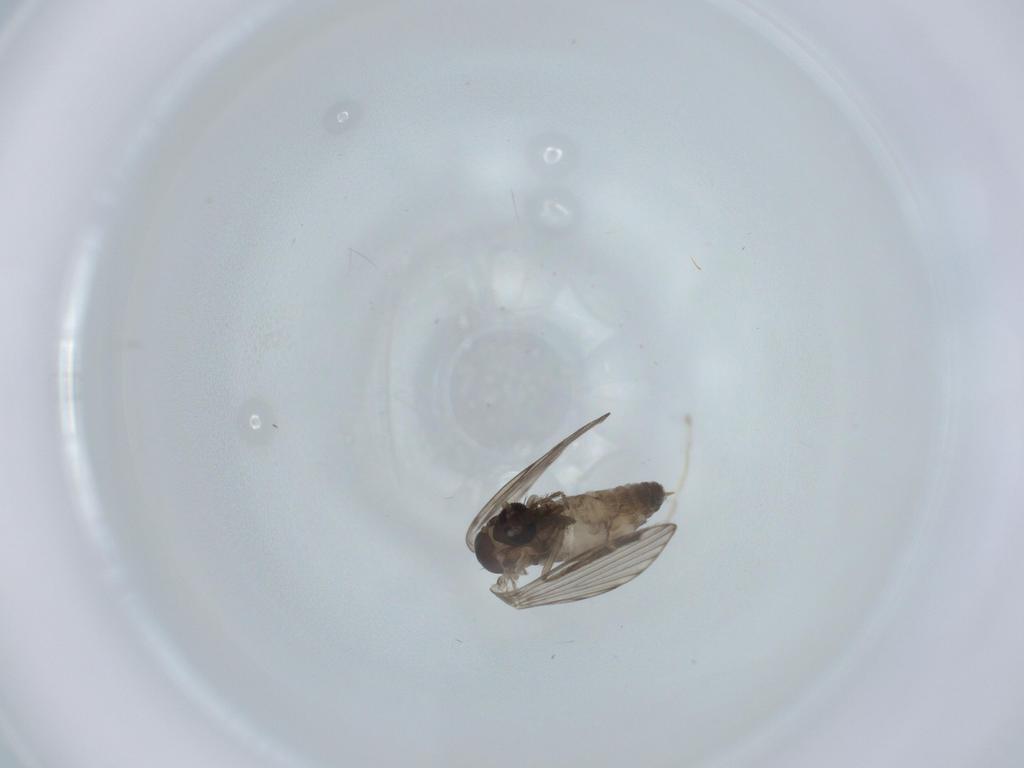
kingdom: Animalia
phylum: Arthropoda
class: Insecta
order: Diptera
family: Psychodidae
